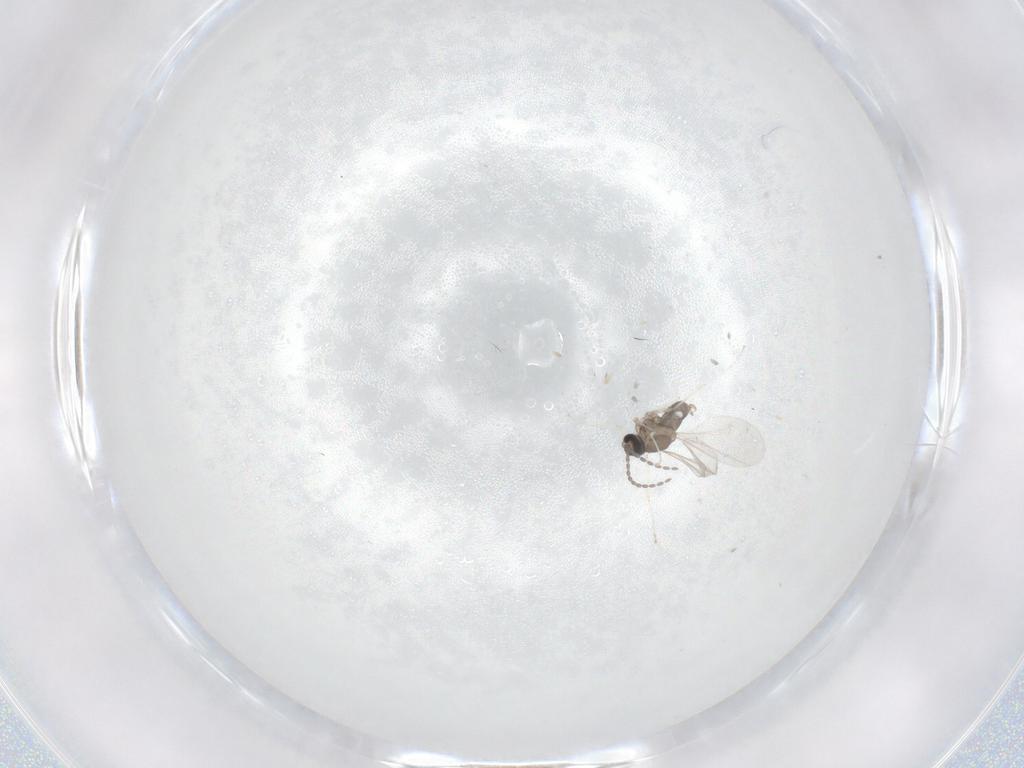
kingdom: Animalia
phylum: Arthropoda
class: Insecta
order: Diptera
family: Cecidomyiidae
